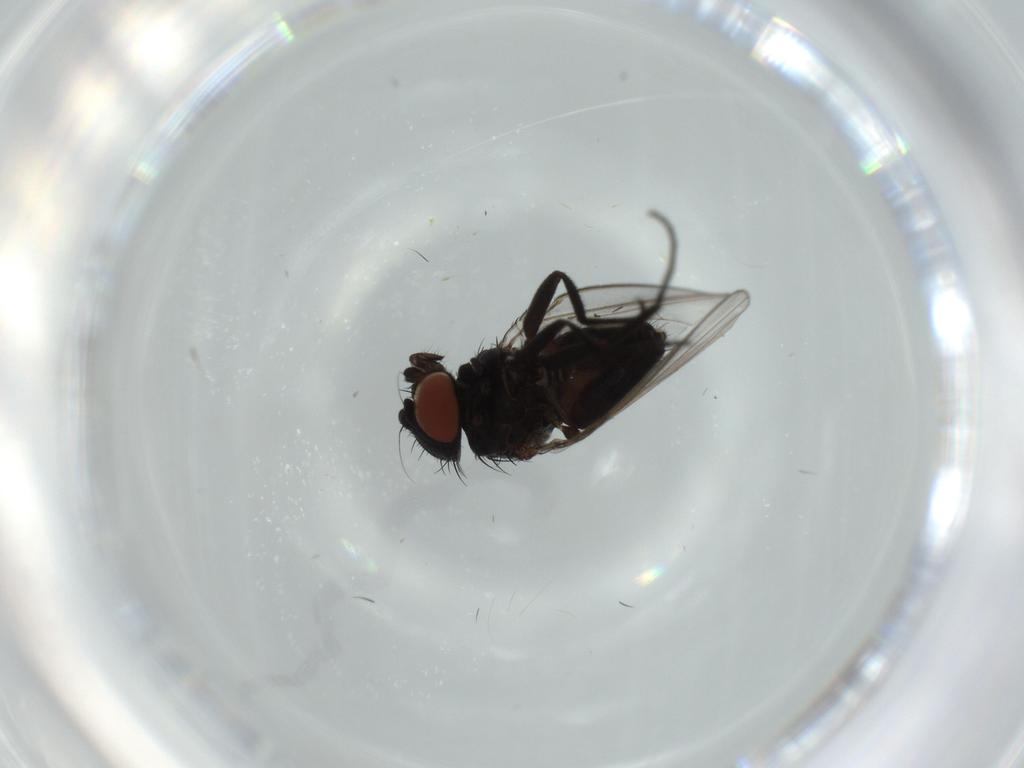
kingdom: Animalia
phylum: Arthropoda
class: Insecta
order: Diptera
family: Milichiidae
